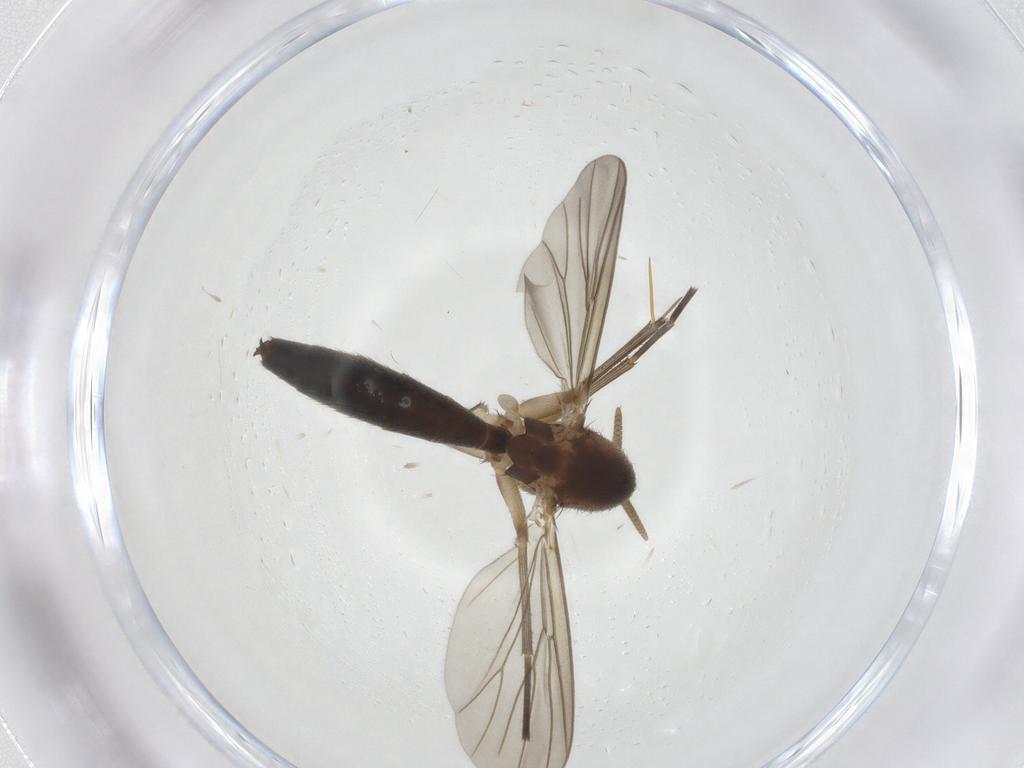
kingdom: Animalia
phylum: Arthropoda
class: Insecta
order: Diptera
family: Mycetophilidae
